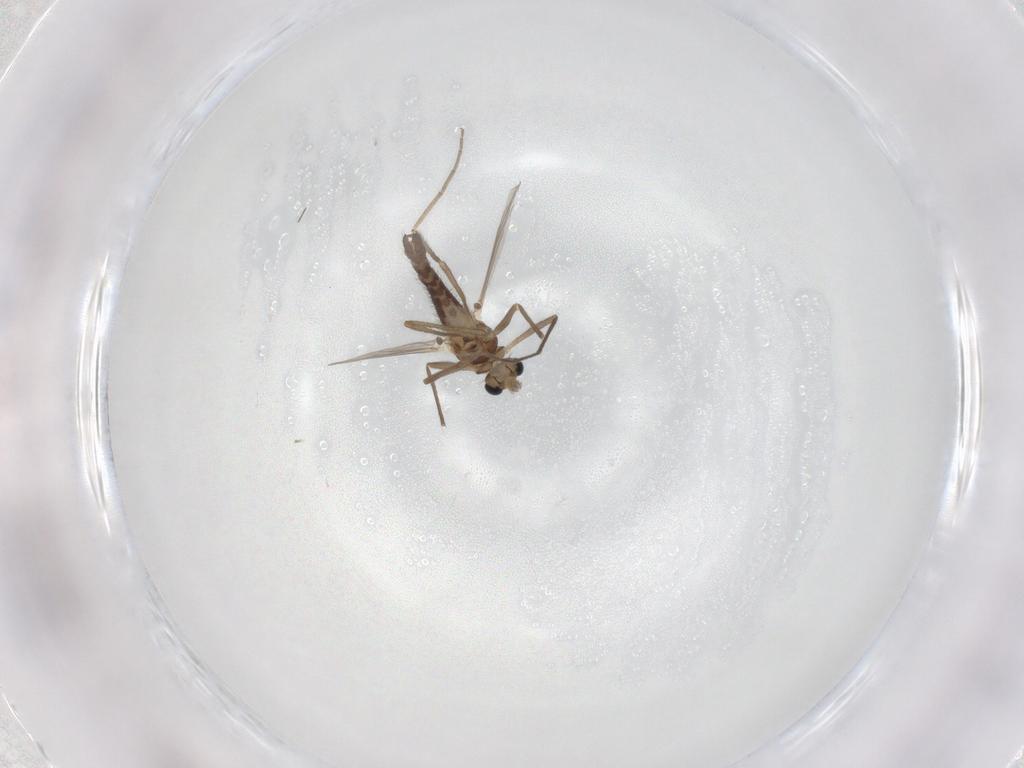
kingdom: Animalia
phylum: Arthropoda
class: Insecta
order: Diptera
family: Chironomidae
